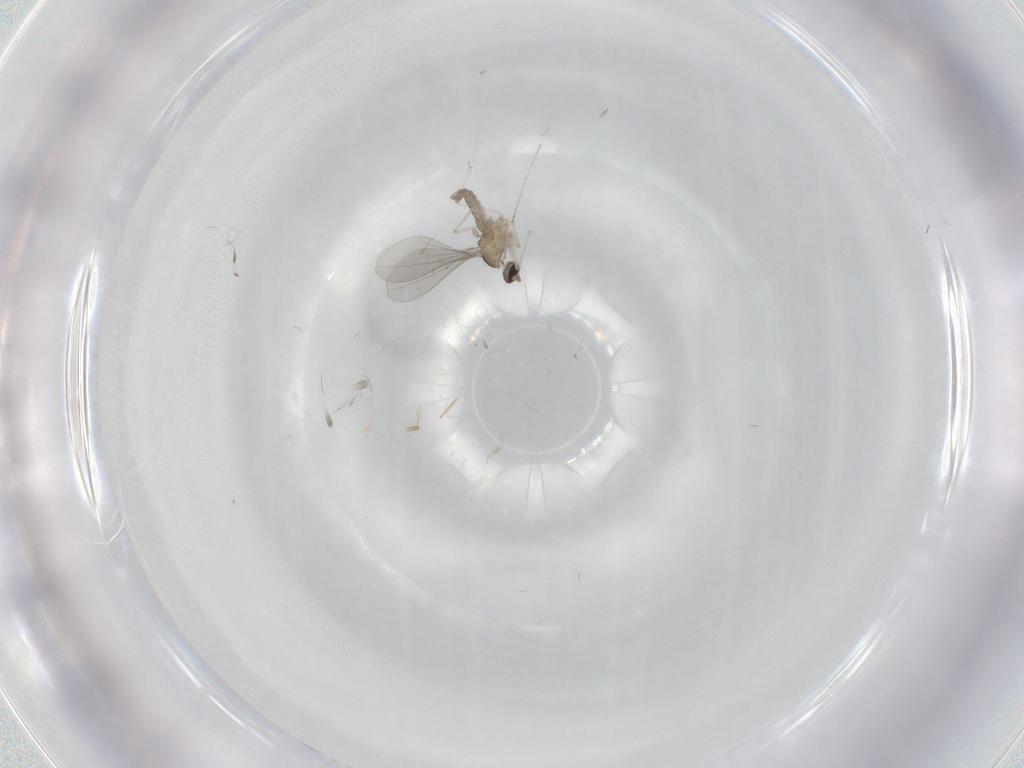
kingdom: Animalia
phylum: Arthropoda
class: Insecta
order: Diptera
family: Cecidomyiidae
